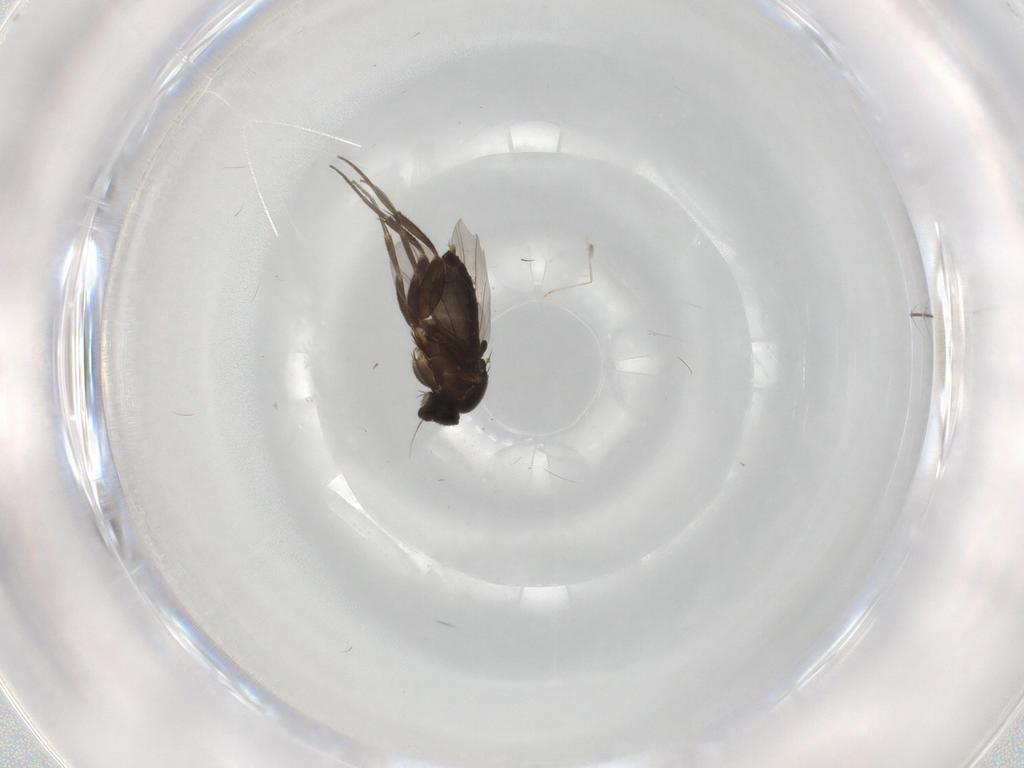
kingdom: Animalia
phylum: Arthropoda
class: Insecta
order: Diptera
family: Culicidae
